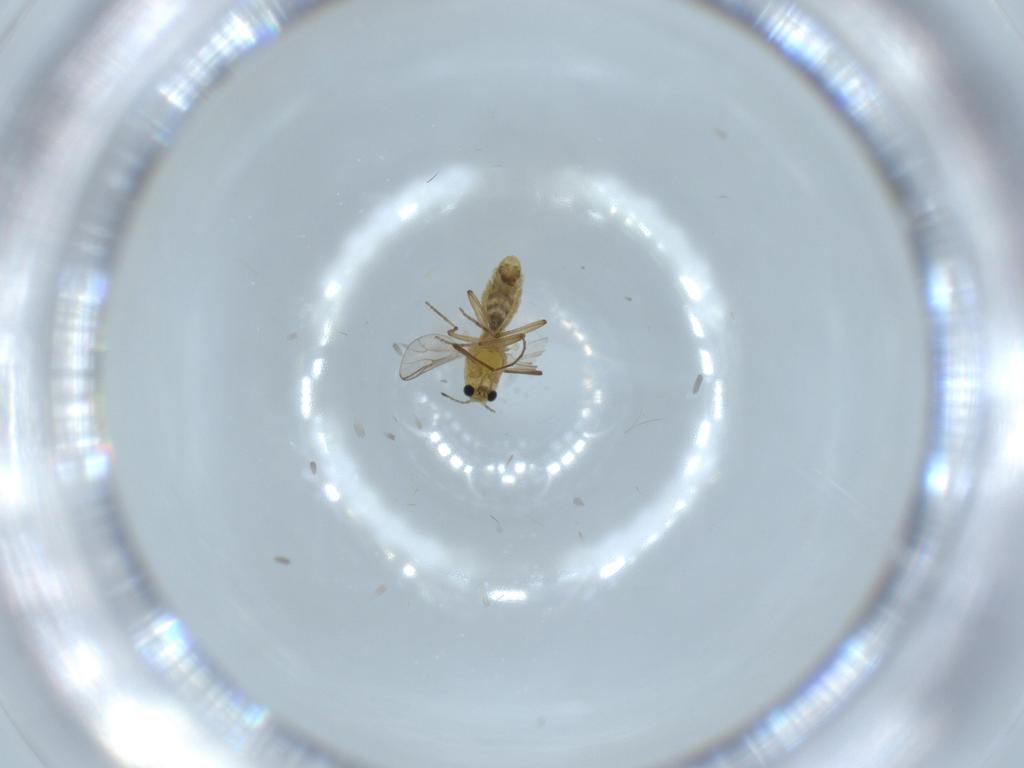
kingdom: Animalia
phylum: Arthropoda
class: Insecta
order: Diptera
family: Chironomidae
